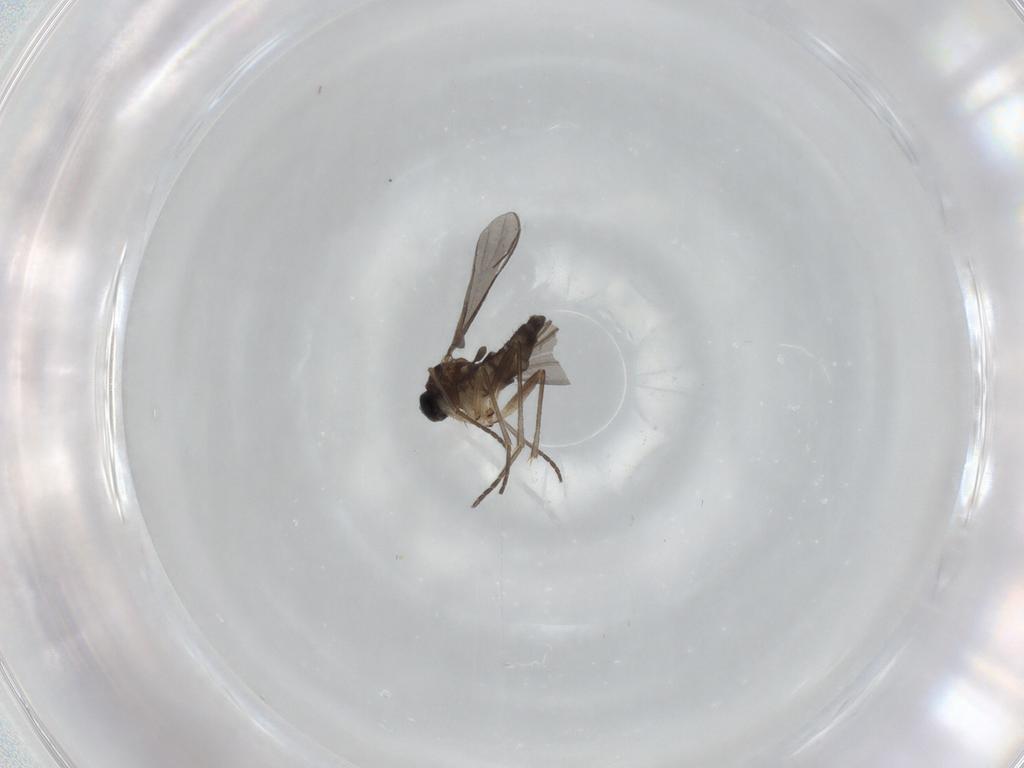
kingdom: Animalia
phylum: Arthropoda
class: Insecta
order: Diptera
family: Sciaridae
